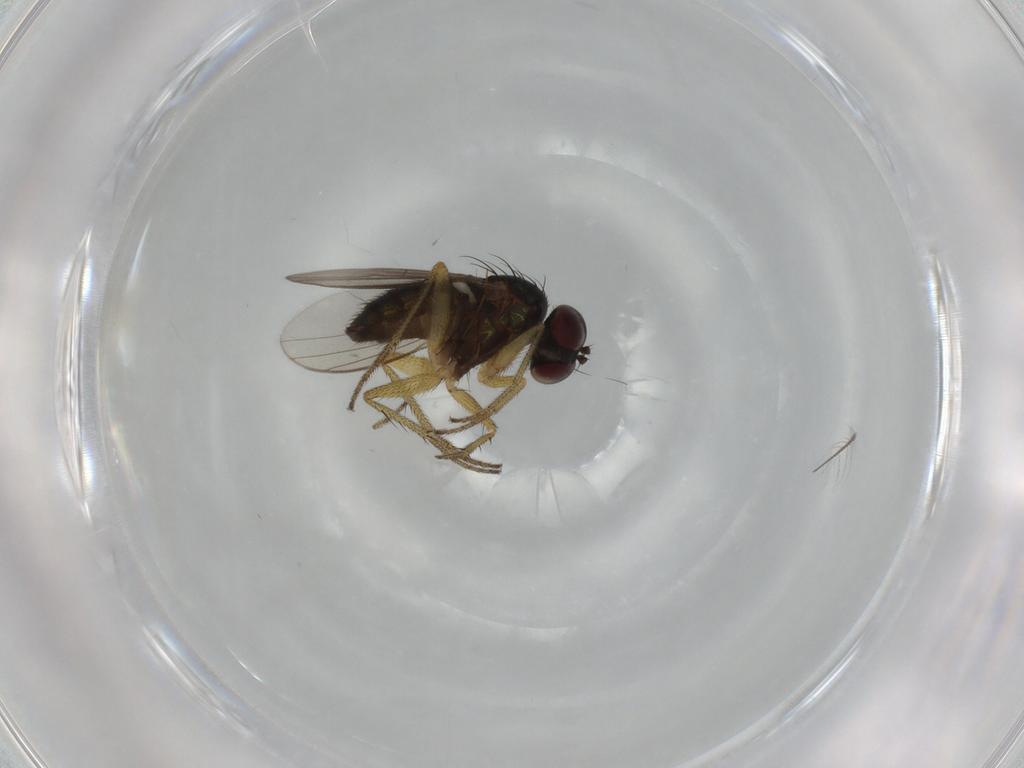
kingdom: Animalia
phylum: Arthropoda
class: Insecta
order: Diptera
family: Dolichopodidae
